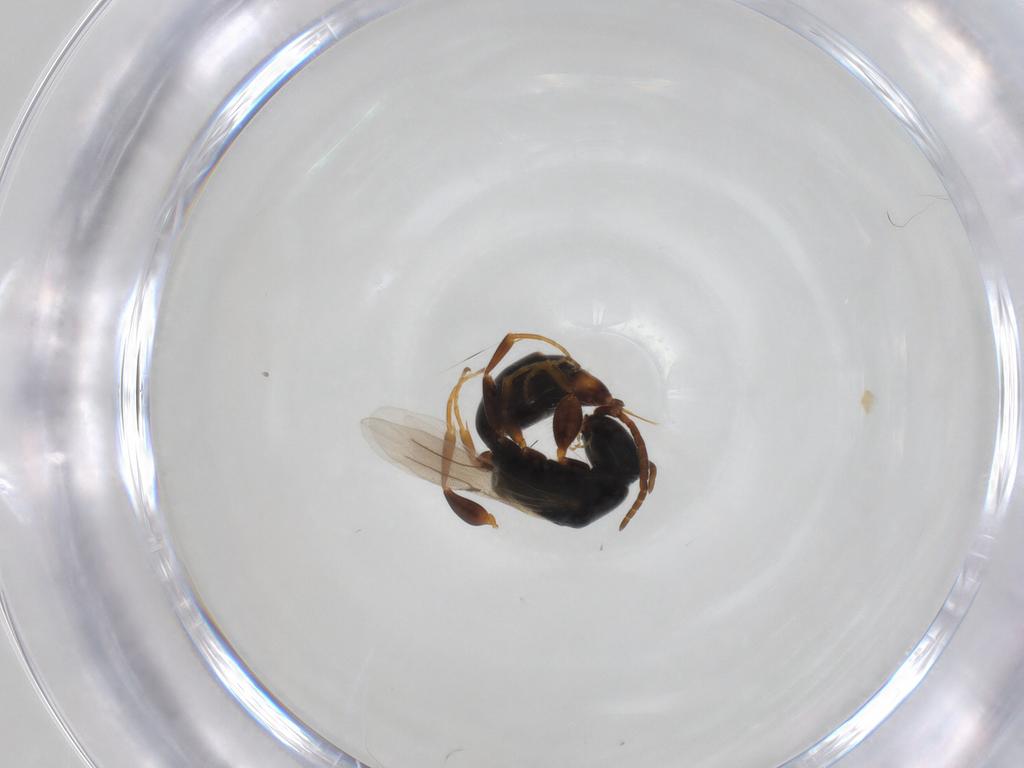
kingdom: Animalia
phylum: Arthropoda
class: Insecta
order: Hymenoptera
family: Bethylidae
